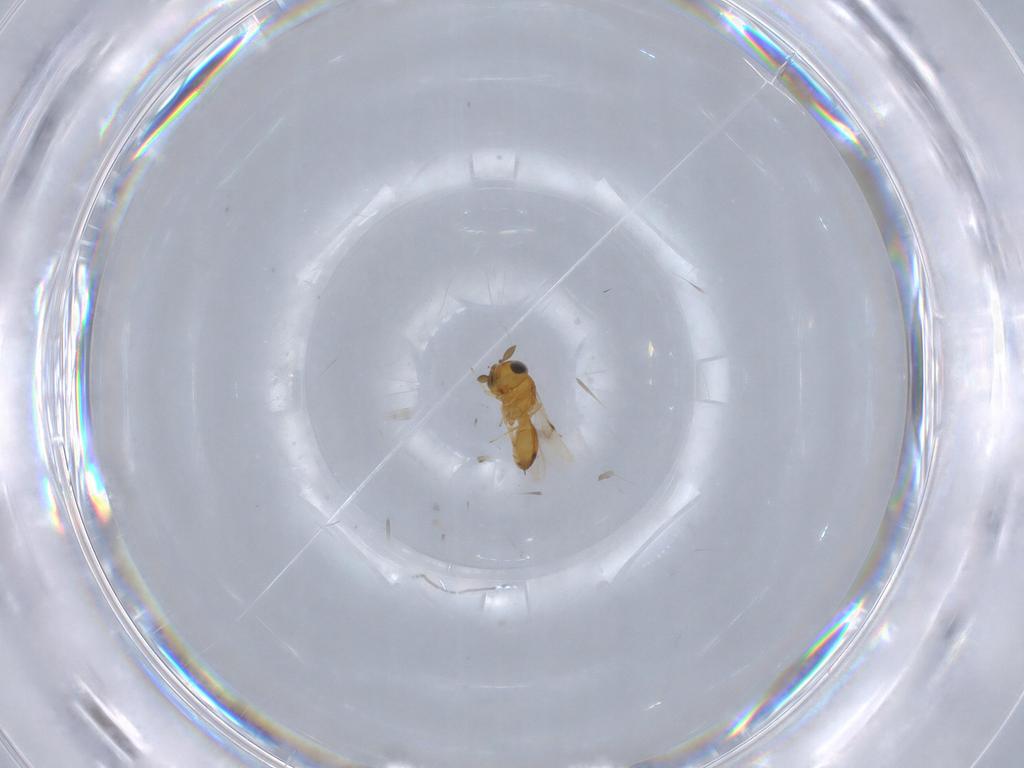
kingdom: Animalia
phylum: Arthropoda
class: Insecta
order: Hymenoptera
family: Scelionidae
